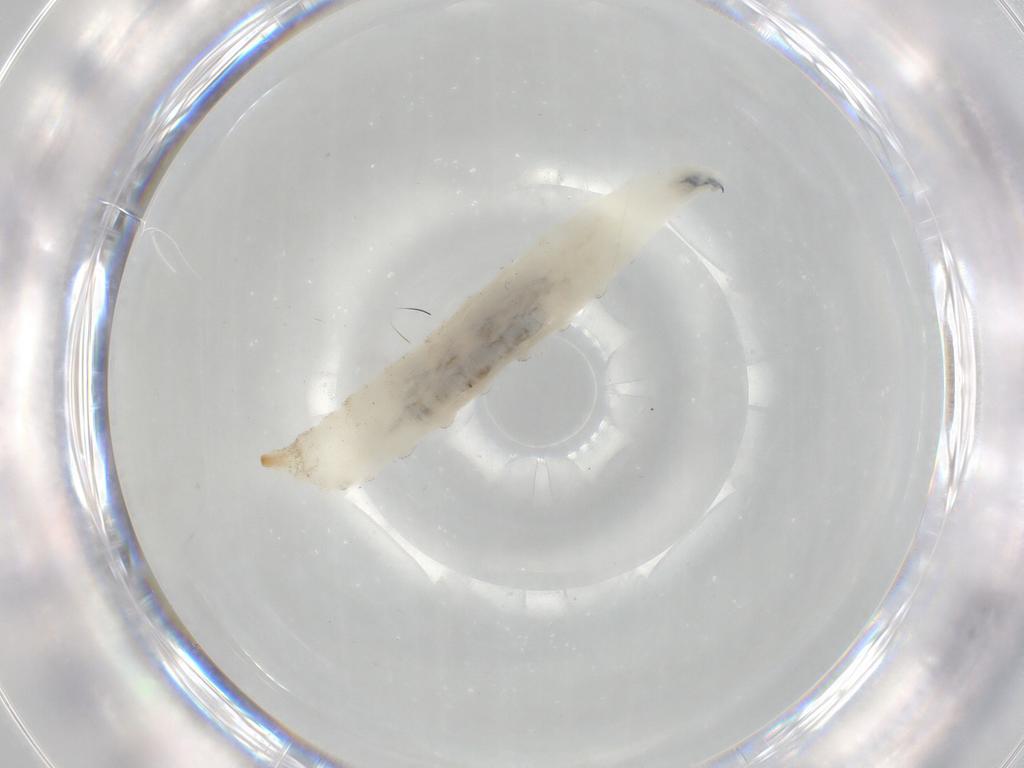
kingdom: Animalia
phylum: Arthropoda
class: Insecta
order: Diptera
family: Drosophilidae
